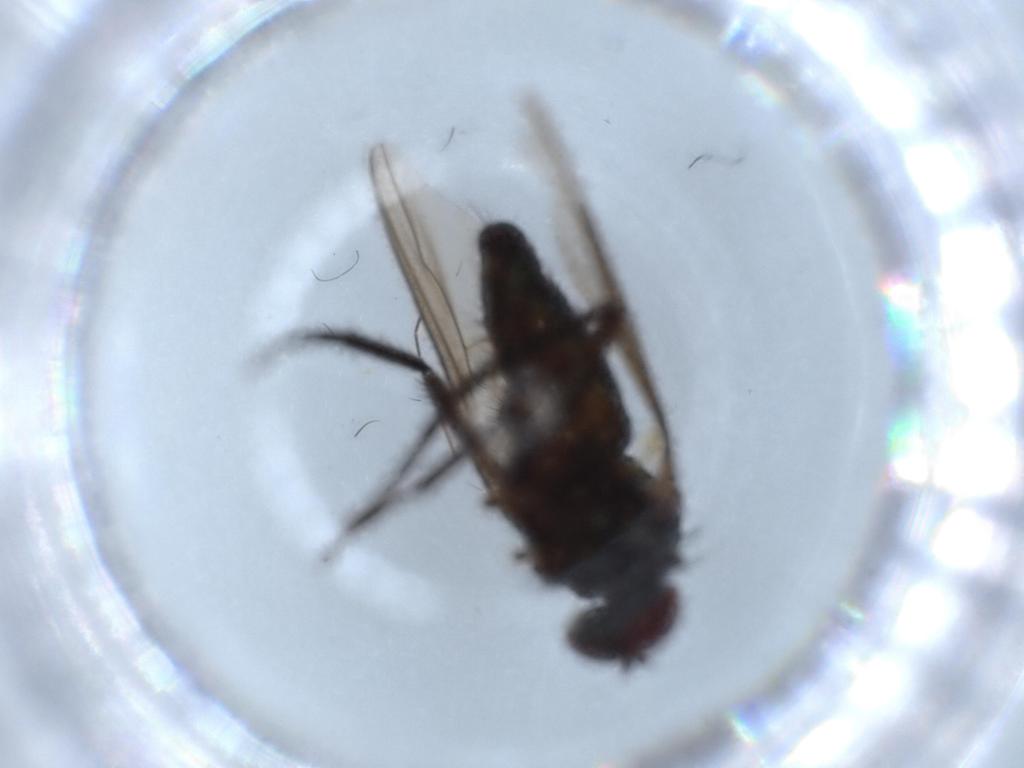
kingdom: Animalia
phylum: Arthropoda
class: Insecta
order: Diptera
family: Dolichopodidae
